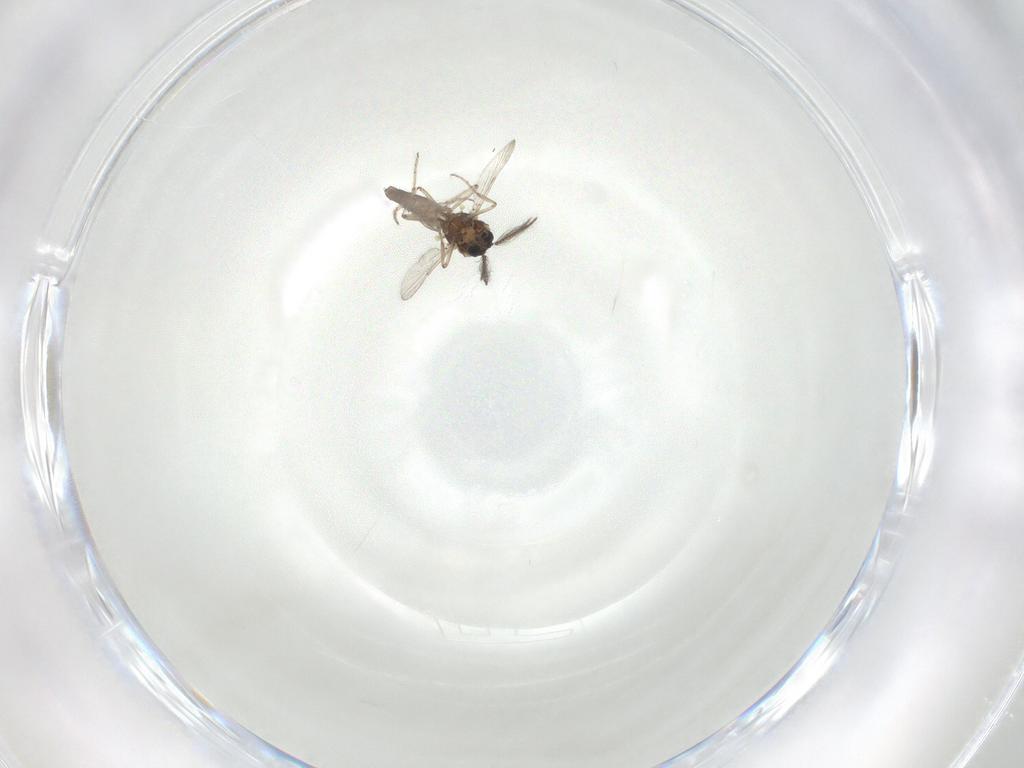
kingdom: Animalia
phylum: Arthropoda
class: Insecta
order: Diptera
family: Ceratopogonidae
